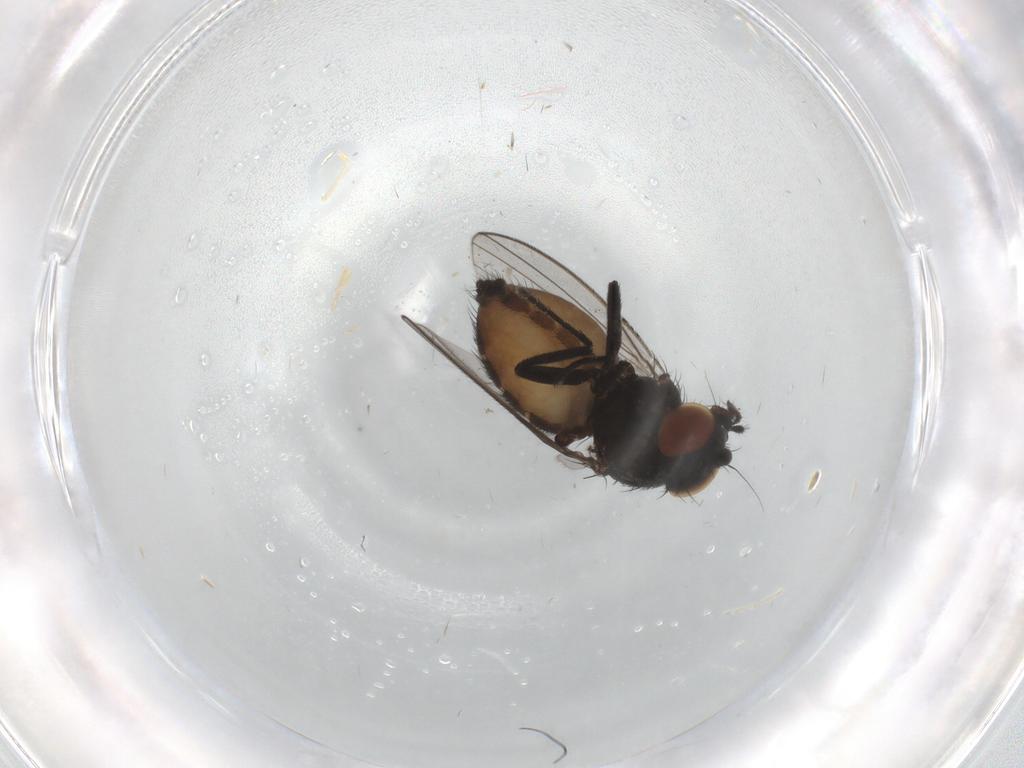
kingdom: Animalia
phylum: Arthropoda
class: Insecta
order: Diptera
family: Milichiidae
